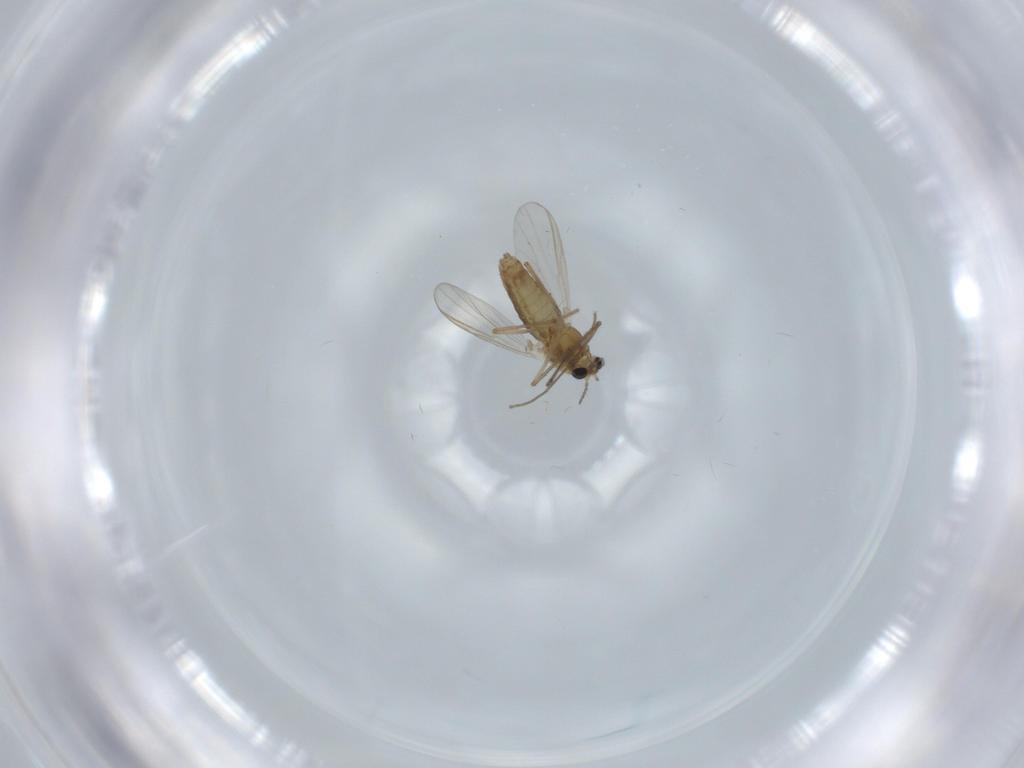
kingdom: Animalia
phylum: Arthropoda
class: Insecta
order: Diptera
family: Chironomidae
